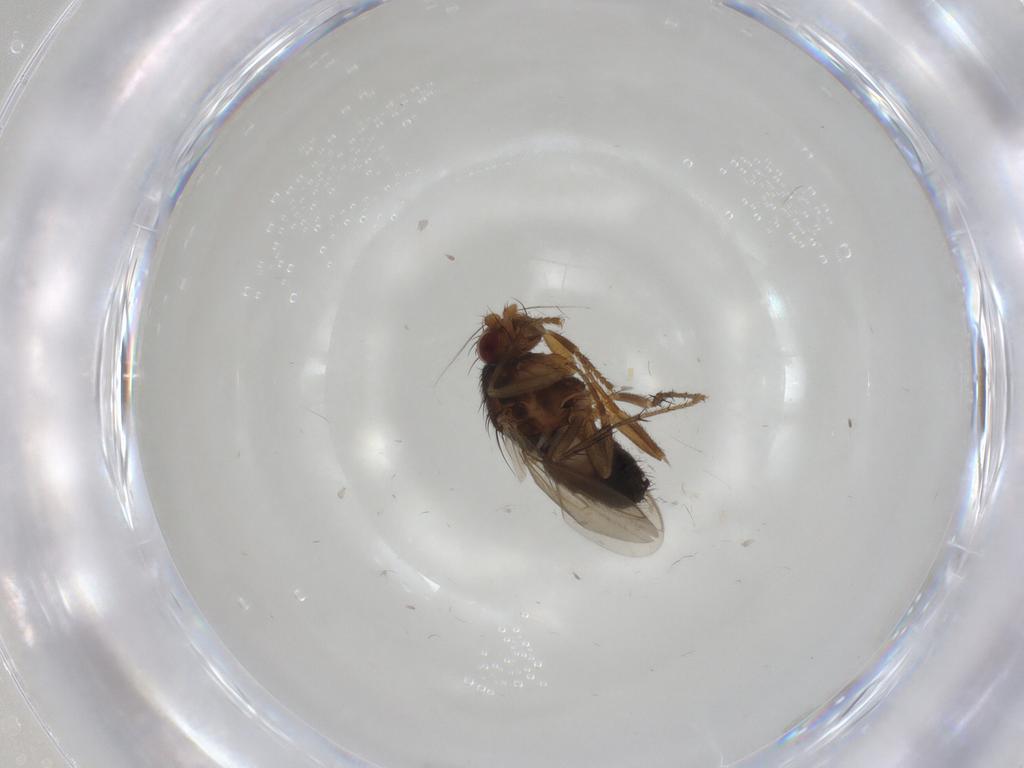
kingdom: Animalia
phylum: Arthropoda
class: Insecta
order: Diptera
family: Sphaeroceridae
